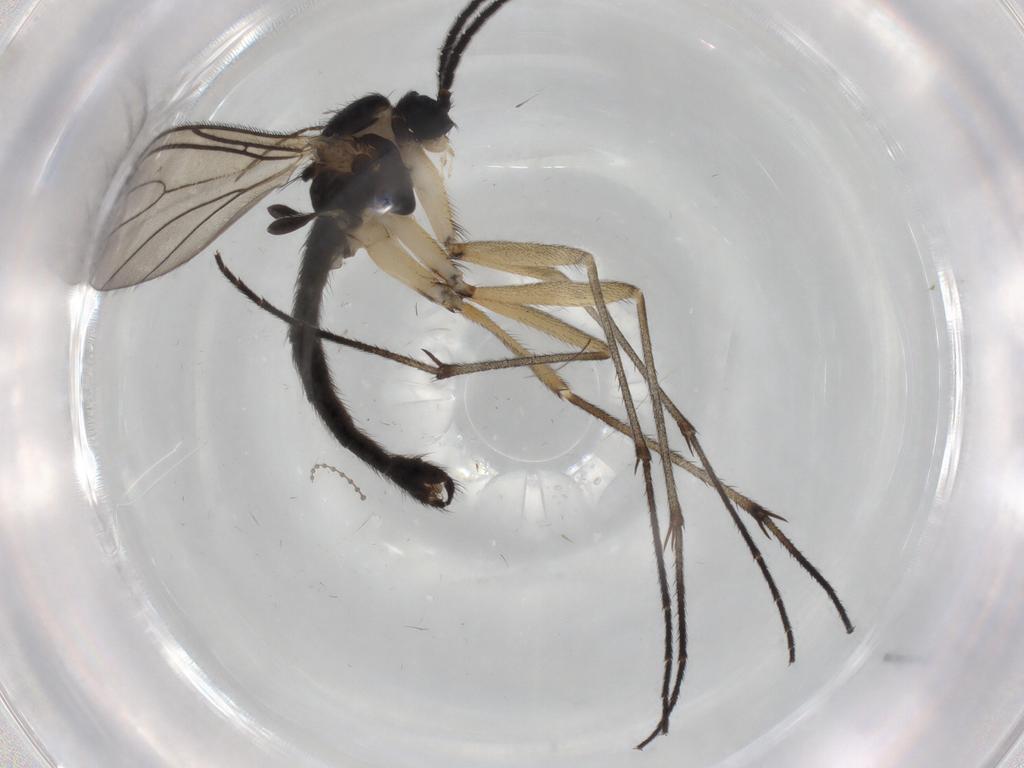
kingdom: Animalia
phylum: Arthropoda
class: Insecta
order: Diptera
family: Sciaridae
